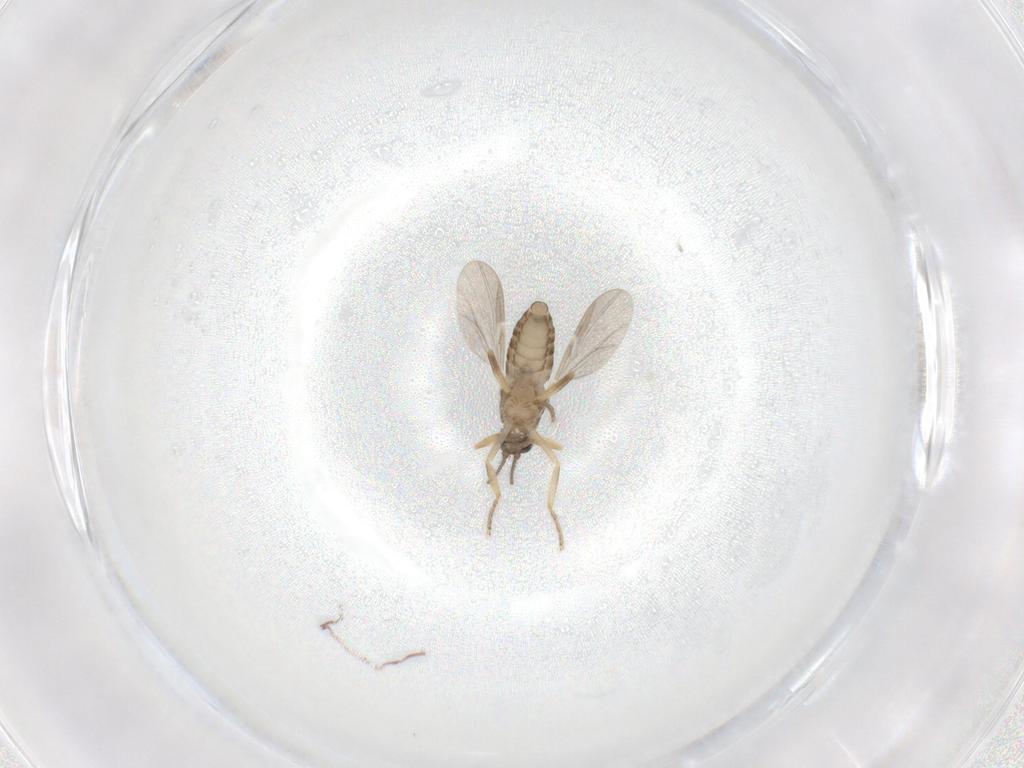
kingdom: Animalia
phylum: Arthropoda
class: Insecta
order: Diptera
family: Ceratopogonidae
